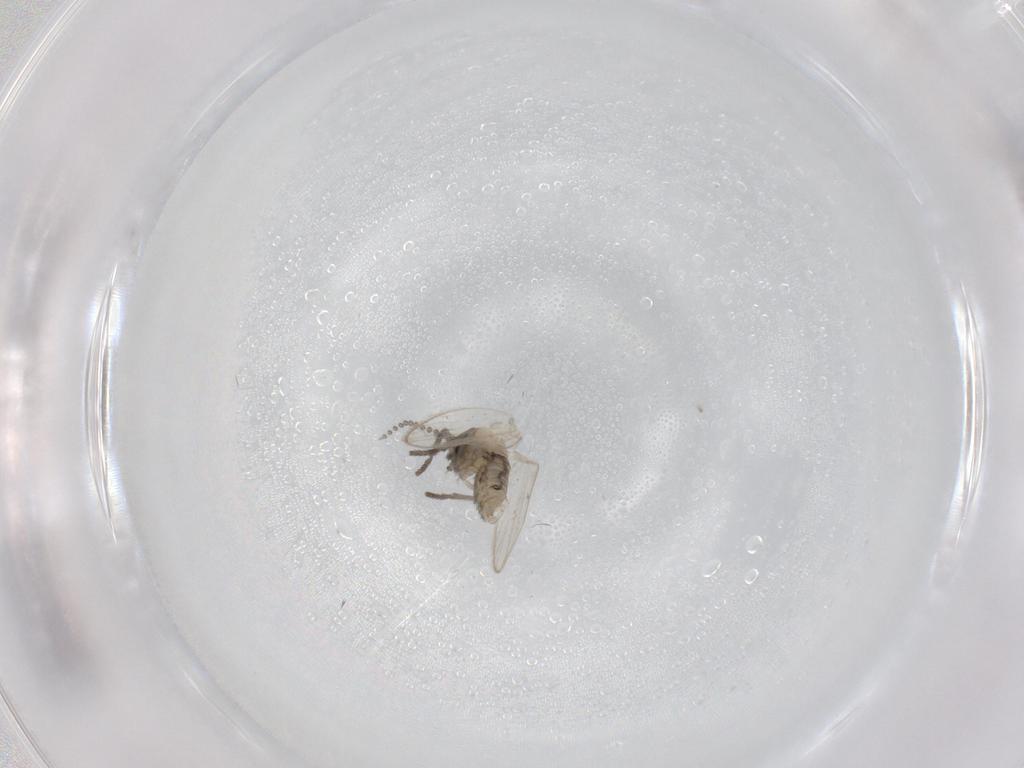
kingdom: Animalia
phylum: Arthropoda
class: Insecta
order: Diptera
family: Psychodidae
